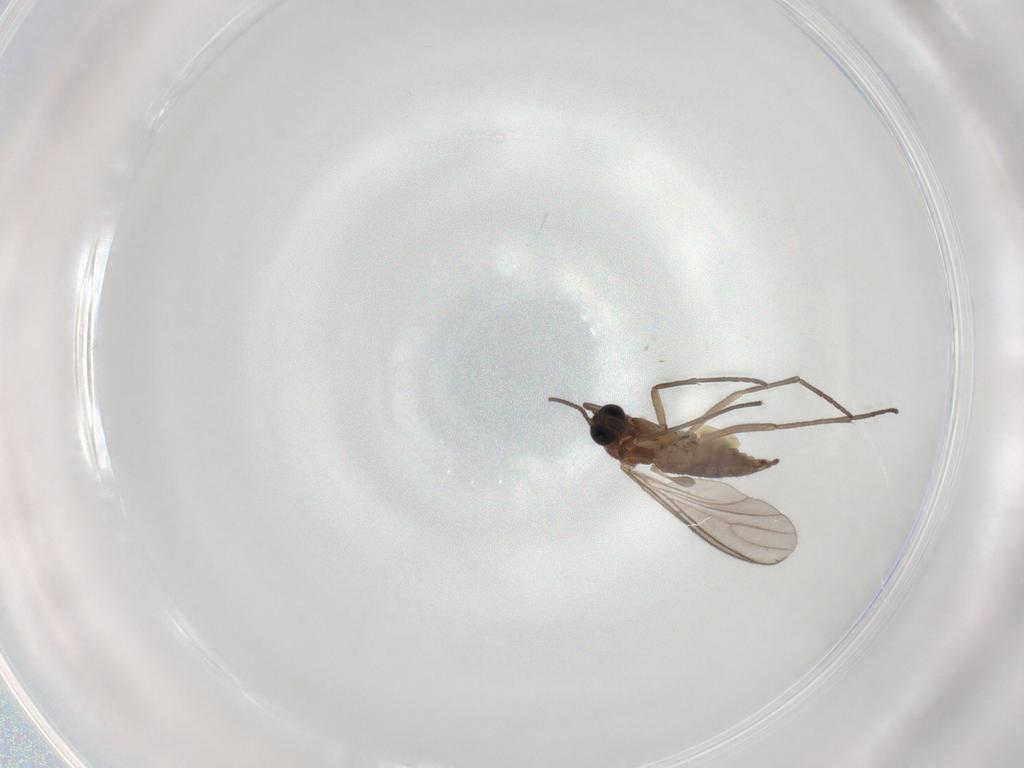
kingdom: Animalia
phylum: Arthropoda
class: Insecta
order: Diptera
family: Sciaridae
